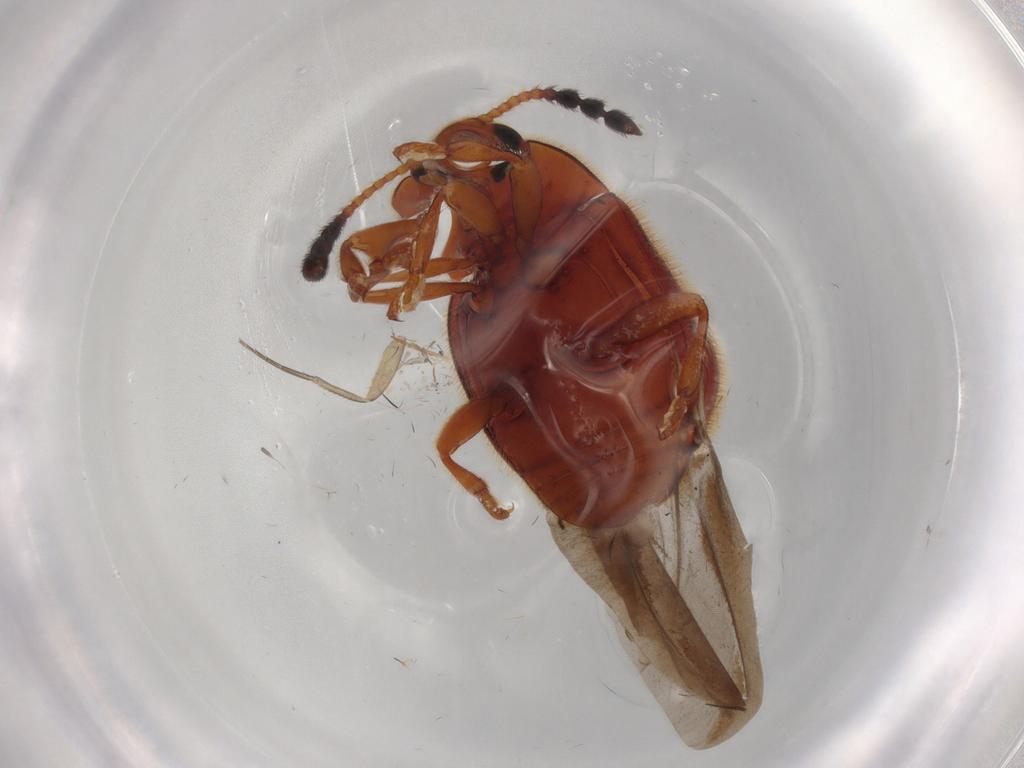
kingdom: Animalia
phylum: Arthropoda
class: Insecta
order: Coleoptera
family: Endomychidae
